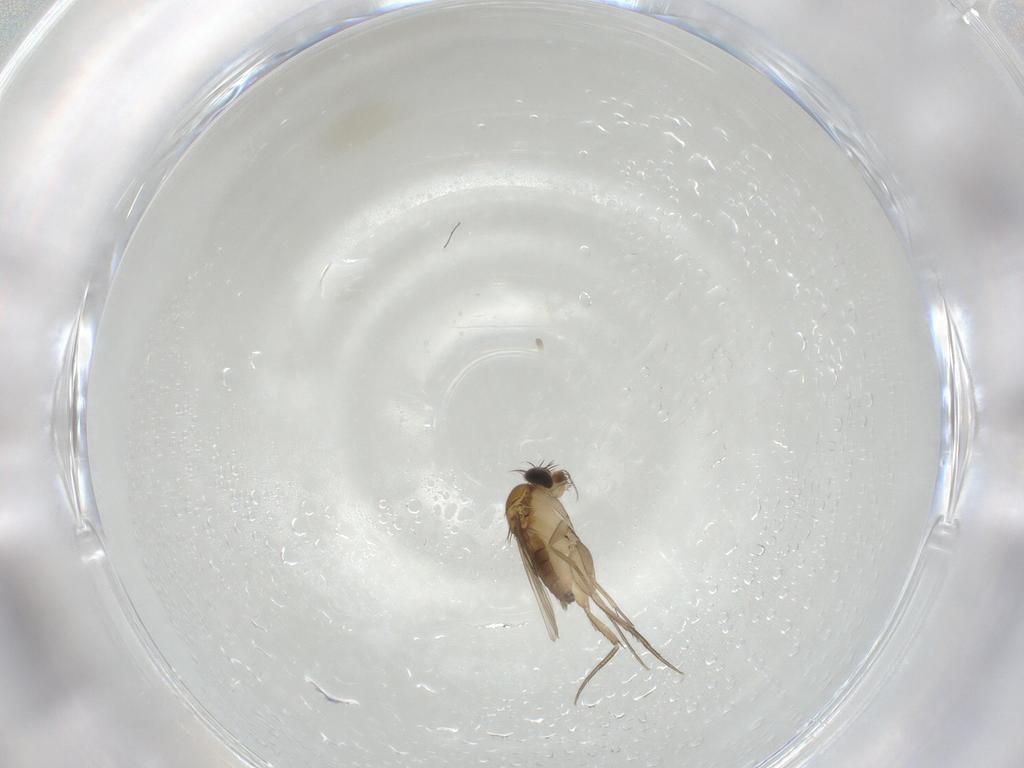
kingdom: Animalia
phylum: Arthropoda
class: Insecta
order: Diptera
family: Phoridae
